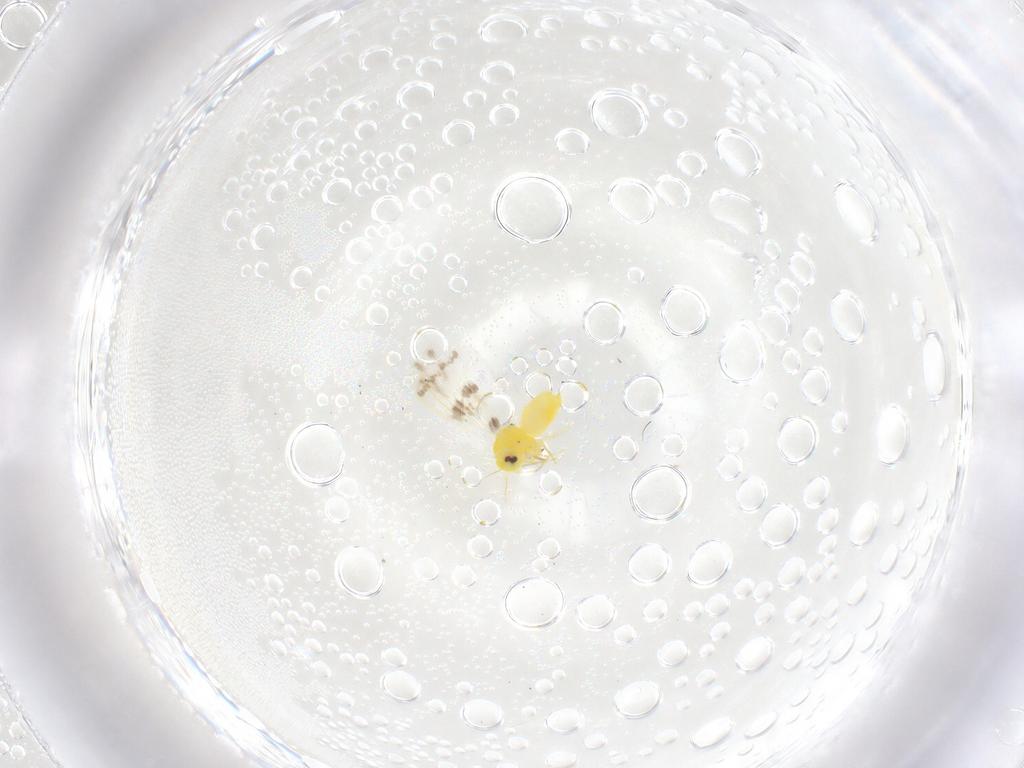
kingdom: Animalia
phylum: Arthropoda
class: Insecta
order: Hemiptera
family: Aleyrodidae
